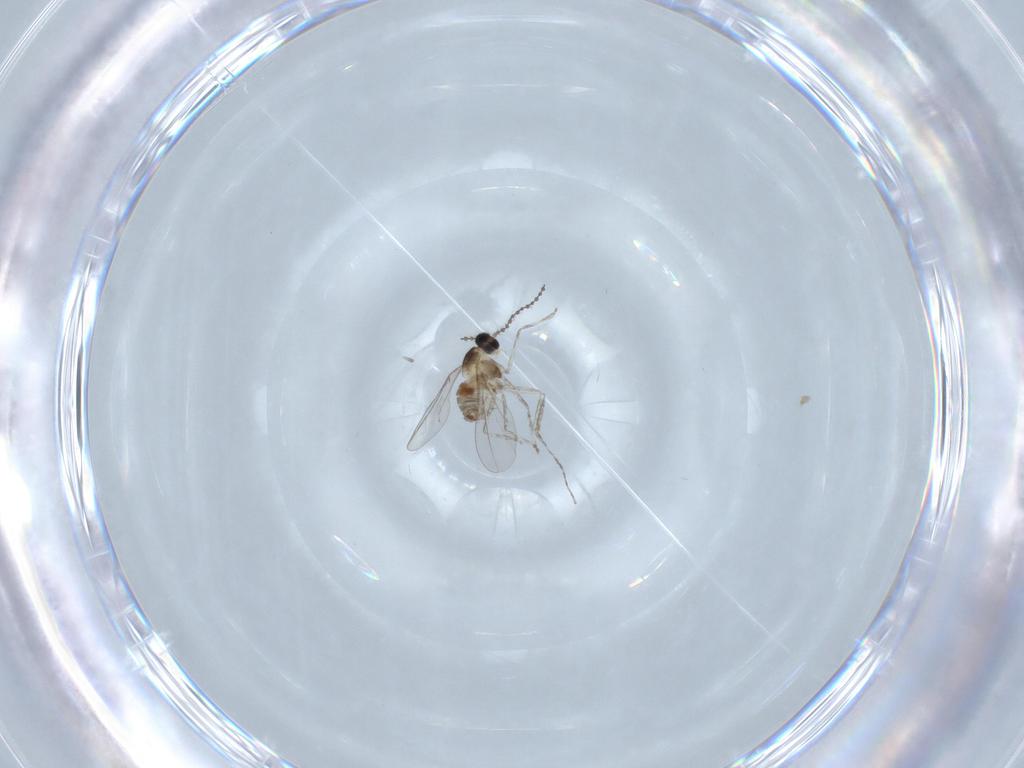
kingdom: Animalia
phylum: Arthropoda
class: Insecta
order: Diptera
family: Cecidomyiidae
